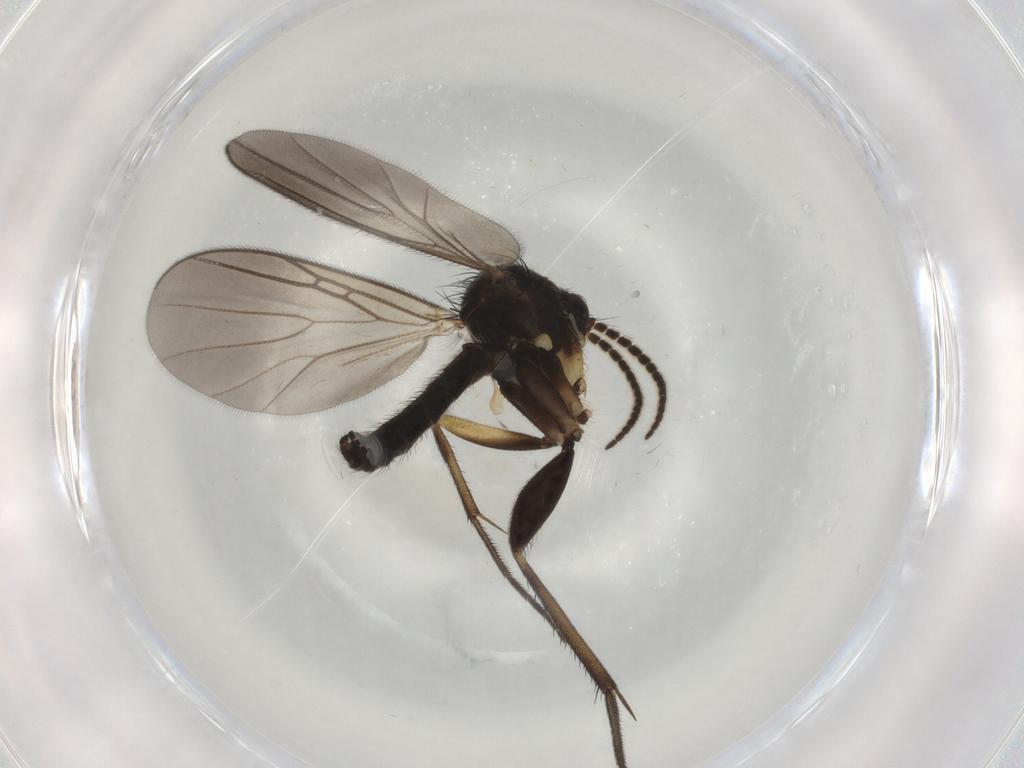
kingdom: Animalia
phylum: Arthropoda
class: Insecta
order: Diptera
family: Mycetophilidae
